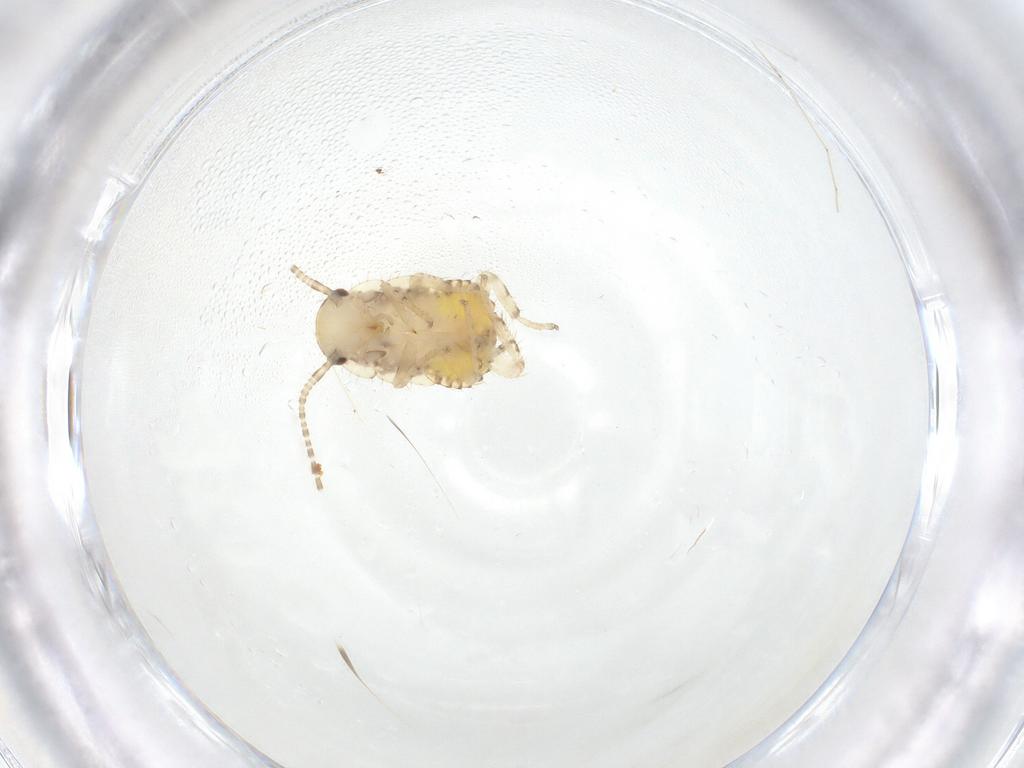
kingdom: Animalia
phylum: Arthropoda
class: Insecta
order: Blattodea
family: Ectobiidae
